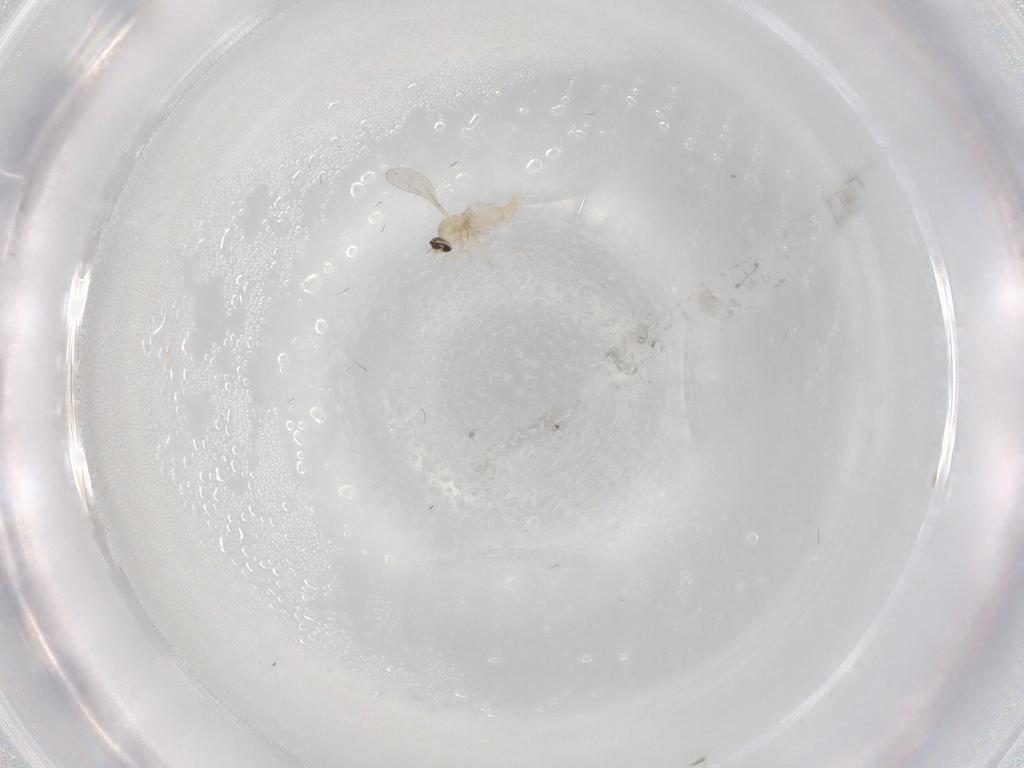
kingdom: Animalia
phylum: Arthropoda
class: Insecta
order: Diptera
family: Cecidomyiidae
